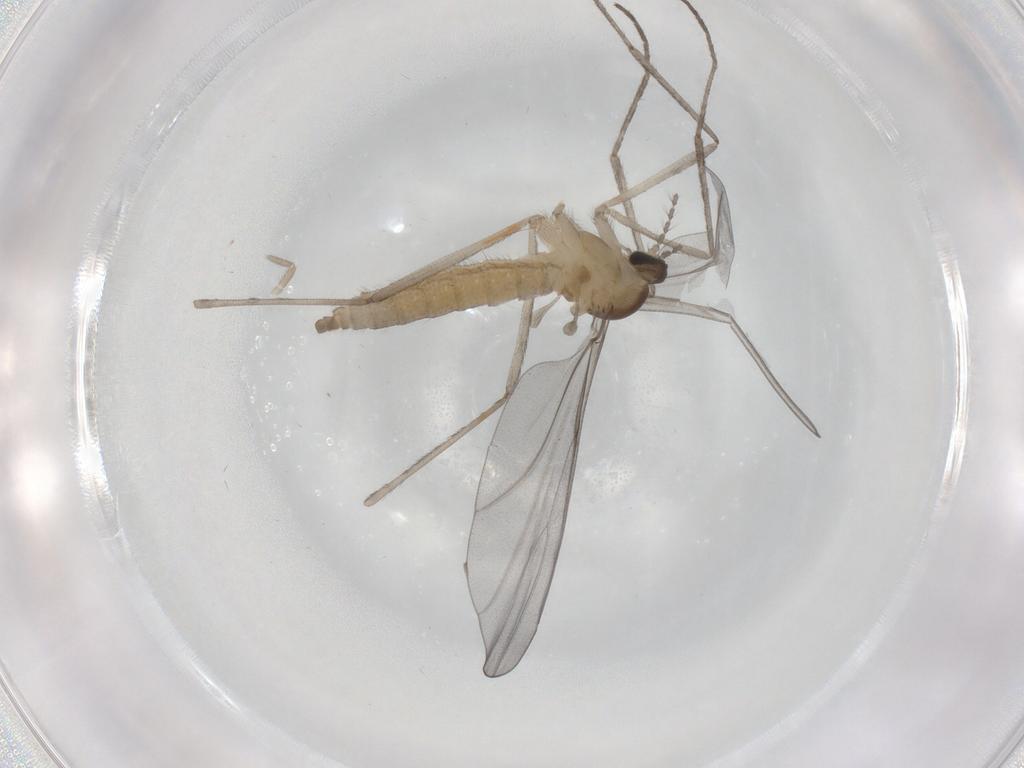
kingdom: Animalia
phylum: Arthropoda
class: Insecta
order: Diptera
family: Cecidomyiidae
